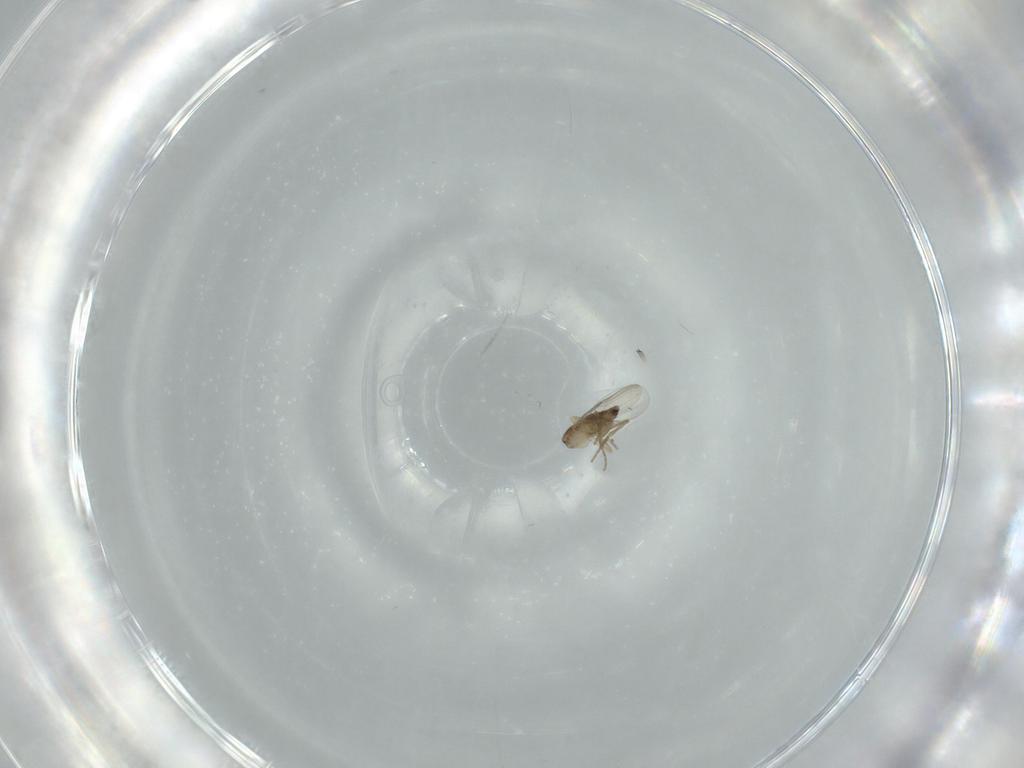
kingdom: Animalia
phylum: Arthropoda
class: Insecta
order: Diptera
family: Phoridae
